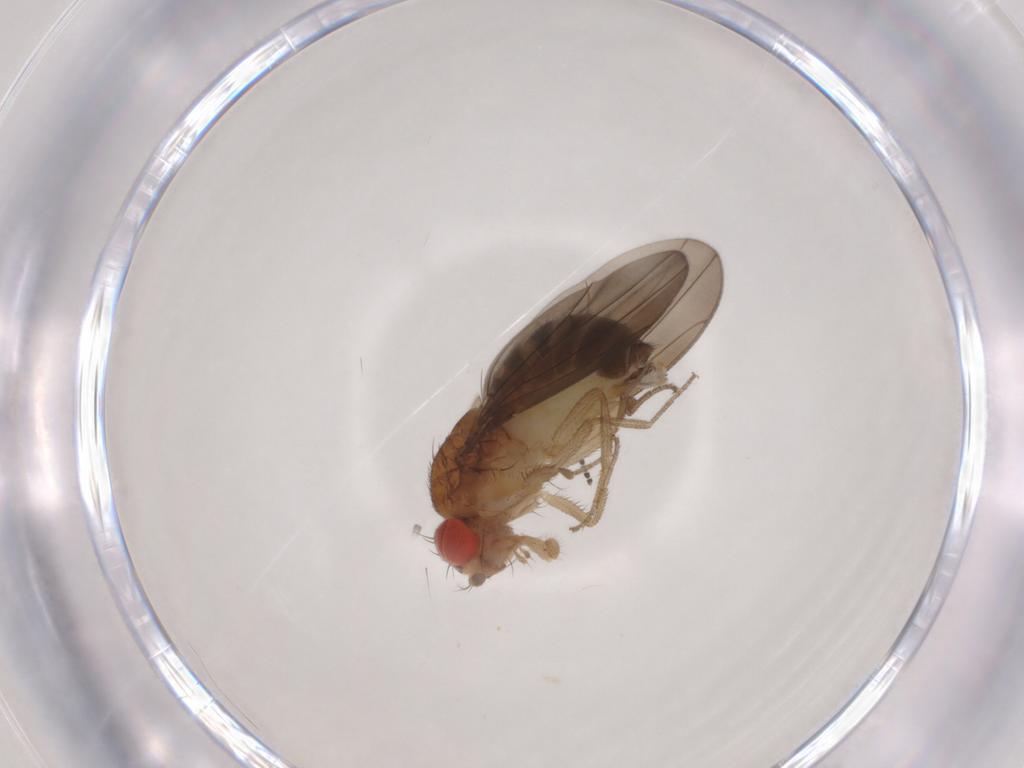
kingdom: Animalia
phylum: Arthropoda
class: Insecta
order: Diptera
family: Drosophilidae
